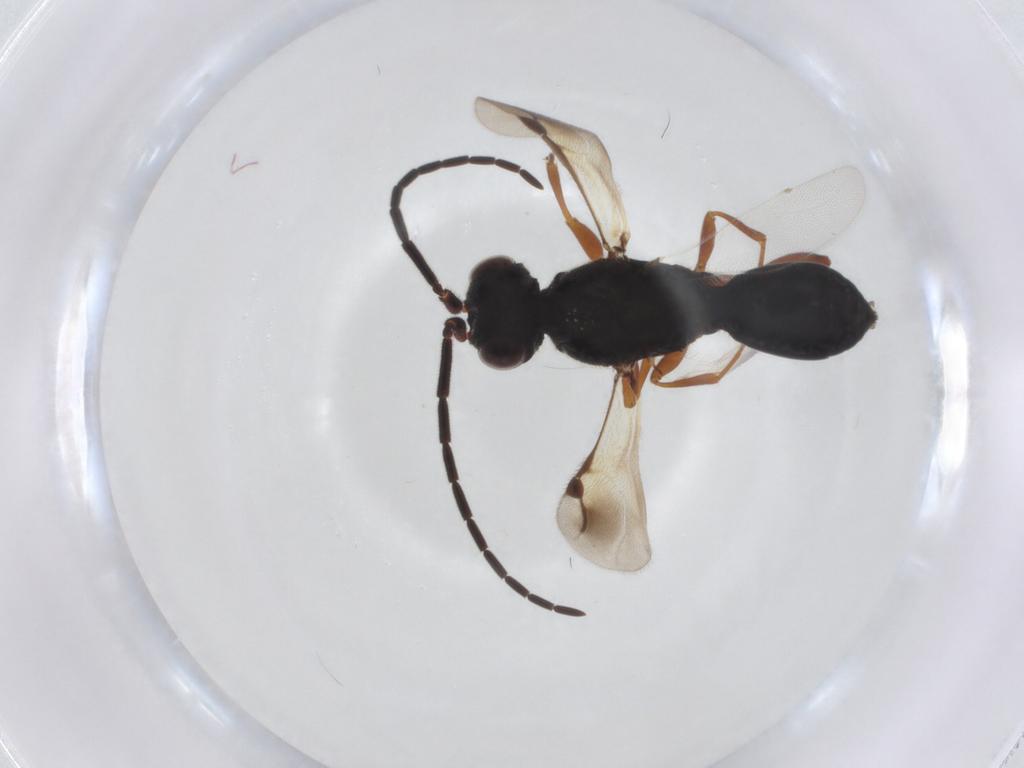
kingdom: Animalia
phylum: Arthropoda
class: Insecta
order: Hymenoptera
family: Megaspilidae
